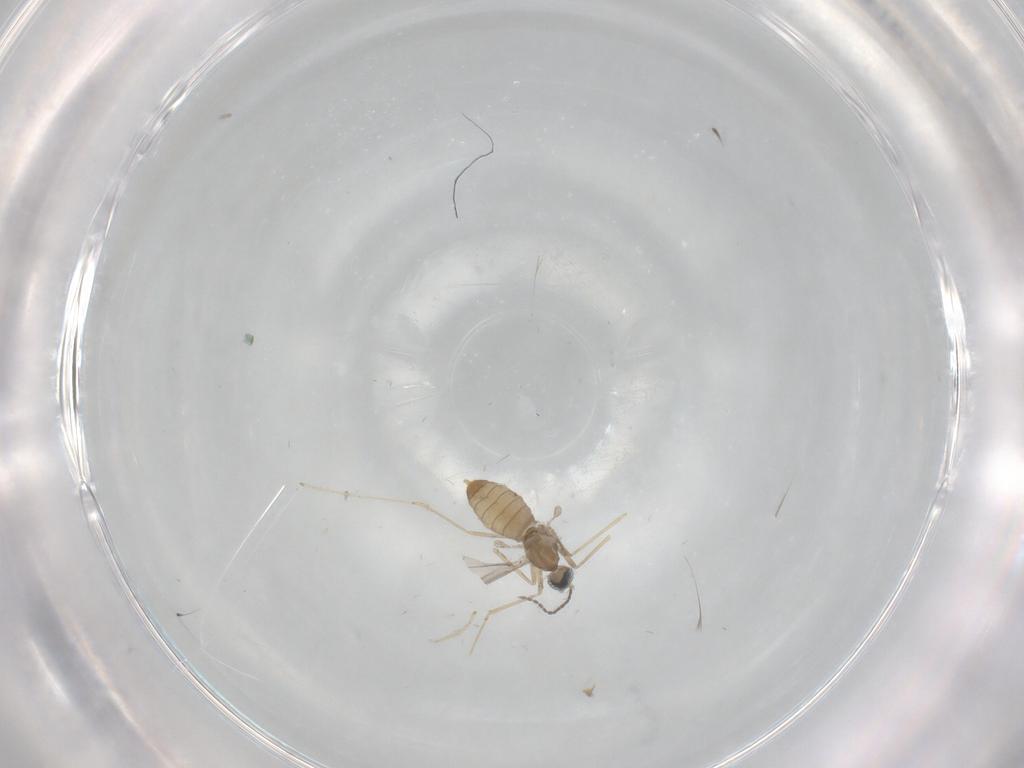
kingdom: Animalia
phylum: Arthropoda
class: Insecta
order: Diptera
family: Cecidomyiidae
